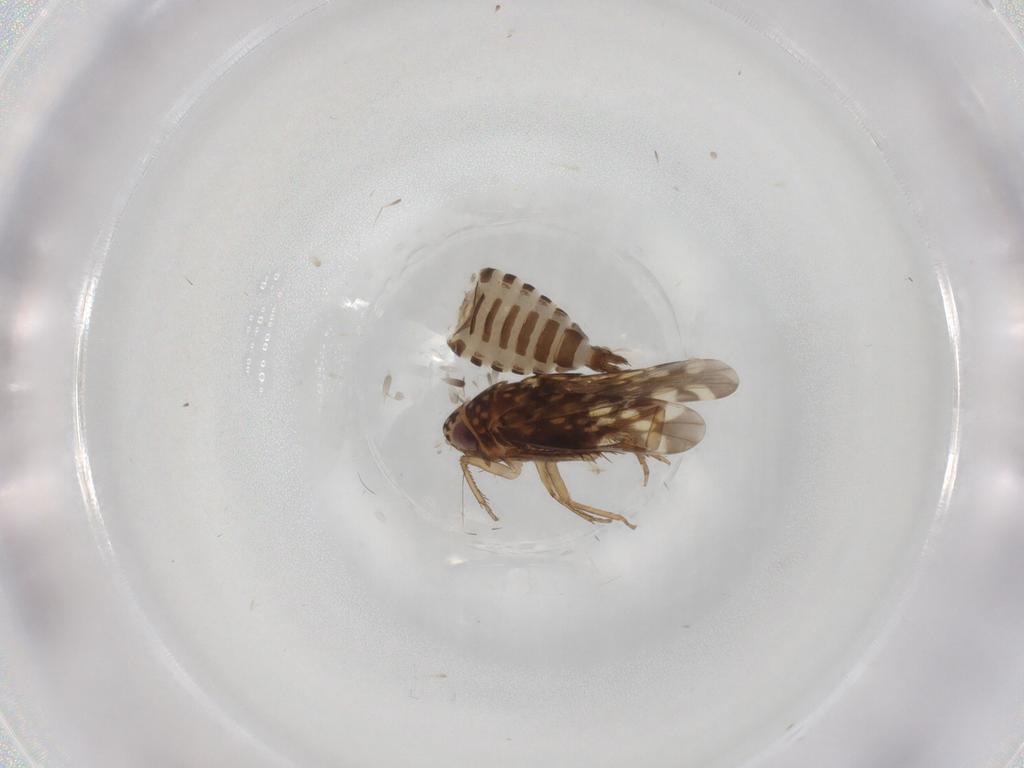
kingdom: Animalia
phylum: Arthropoda
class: Insecta
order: Hemiptera
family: Cicadellidae
